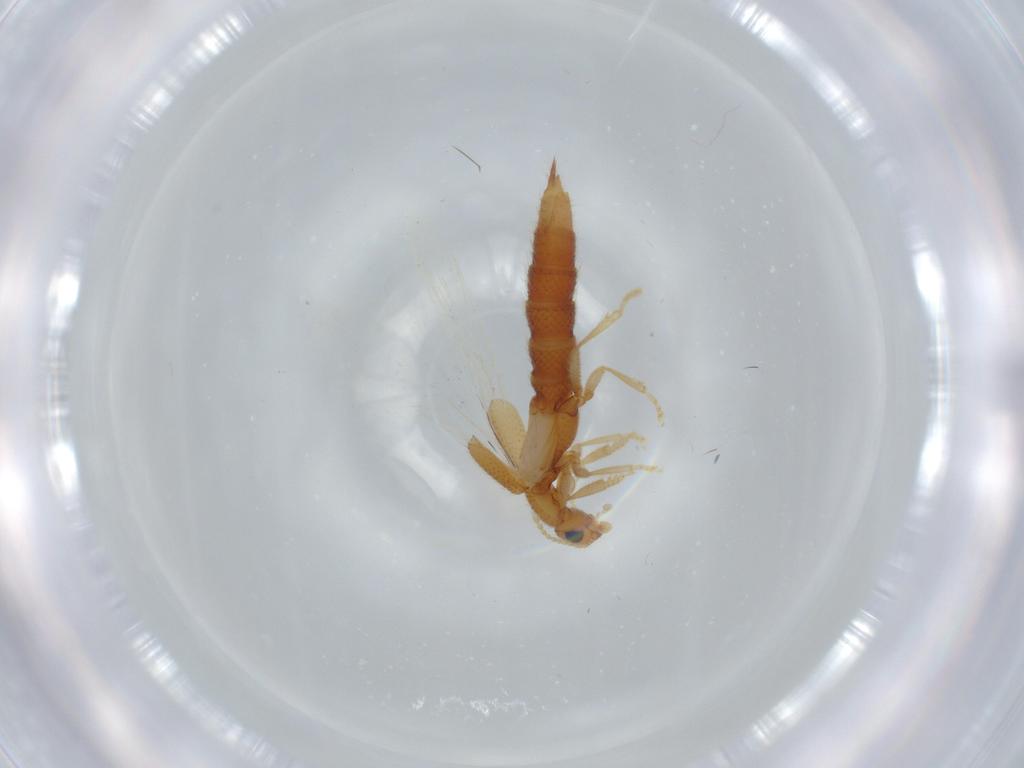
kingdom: Animalia
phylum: Arthropoda
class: Insecta
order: Coleoptera
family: Staphylinidae
